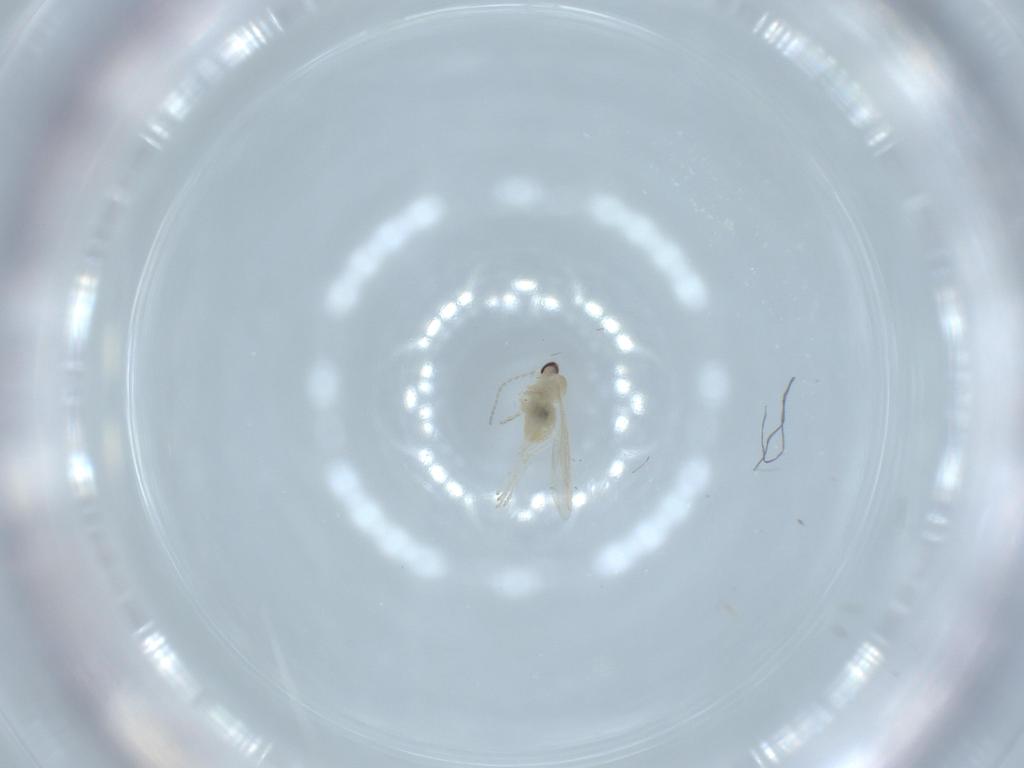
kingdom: Animalia
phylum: Arthropoda
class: Insecta
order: Diptera
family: Cecidomyiidae
